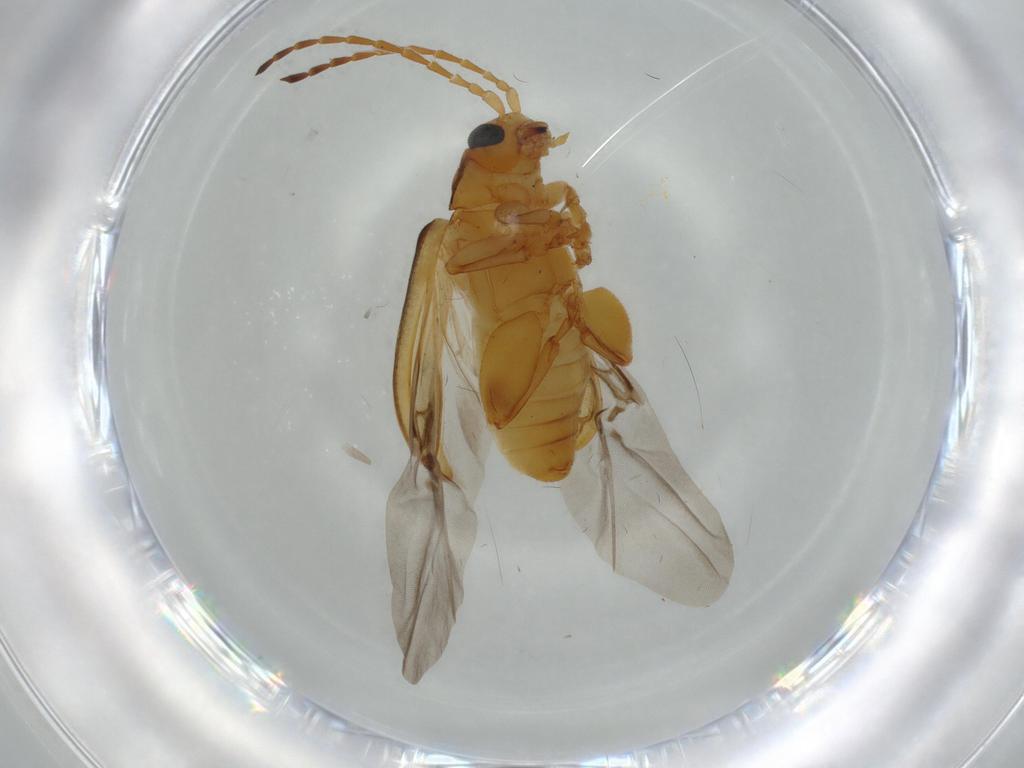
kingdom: Animalia
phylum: Arthropoda
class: Insecta
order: Coleoptera
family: Chrysomelidae
